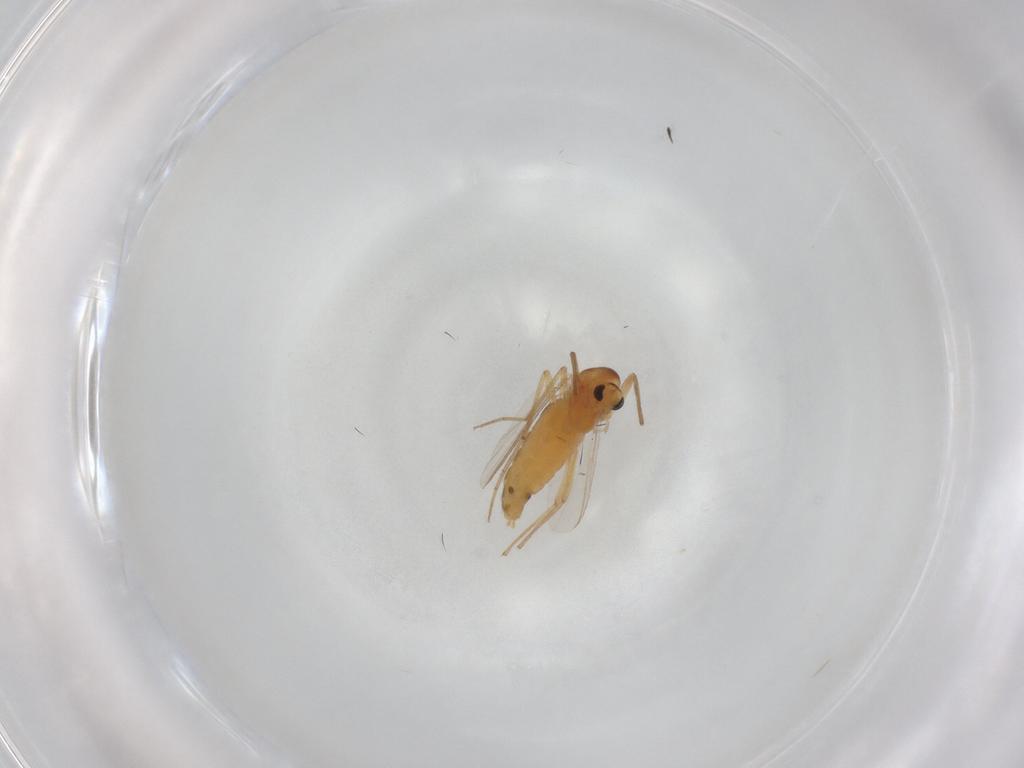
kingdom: Animalia
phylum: Arthropoda
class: Insecta
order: Diptera
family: Chironomidae
